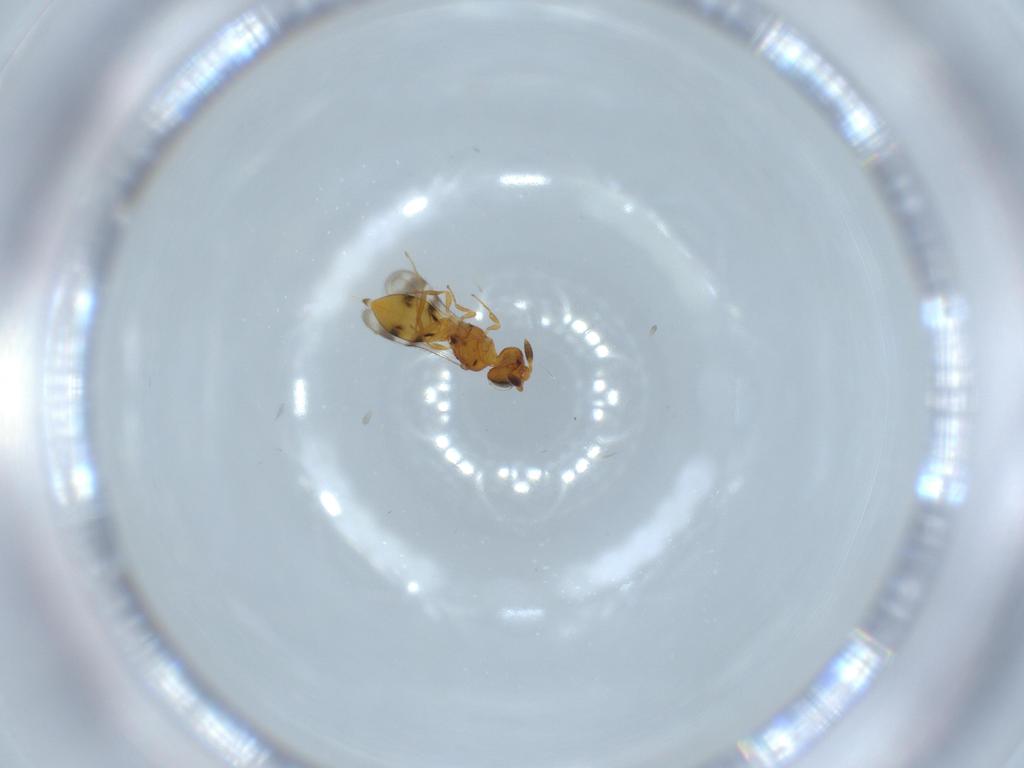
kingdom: Animalia
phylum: Arthropoda
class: Insecta
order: Hymenoptera
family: Scelionidae
